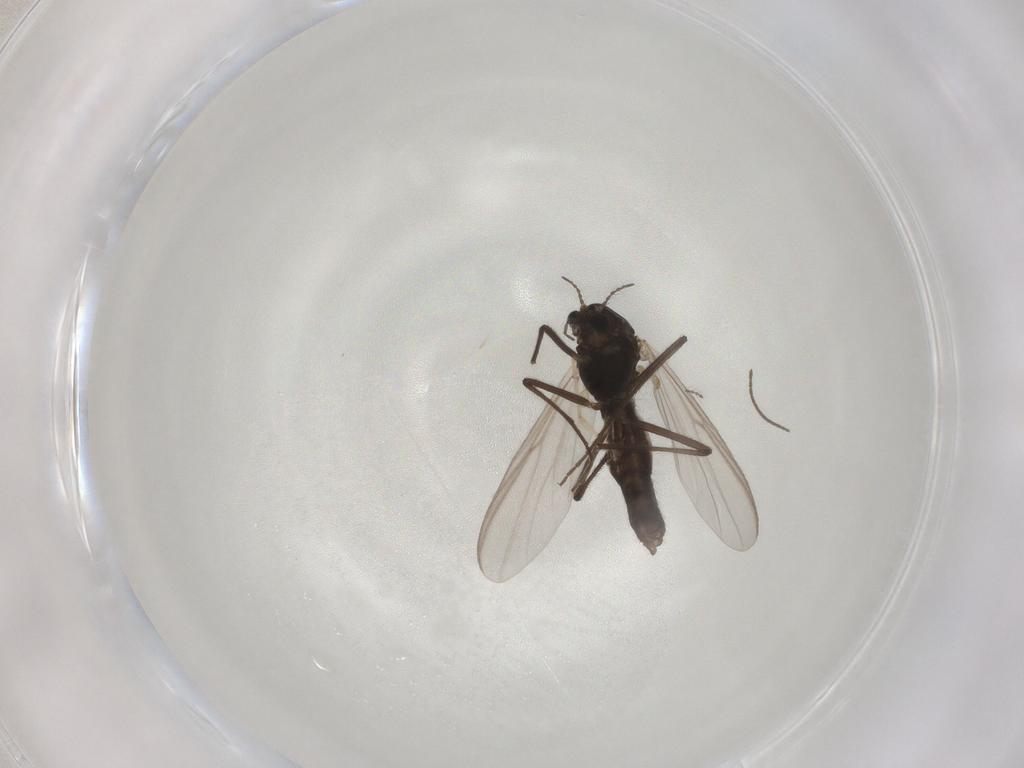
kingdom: Animalia
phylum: Arthropoda
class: Insecta
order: Diptera
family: Chironomidae
